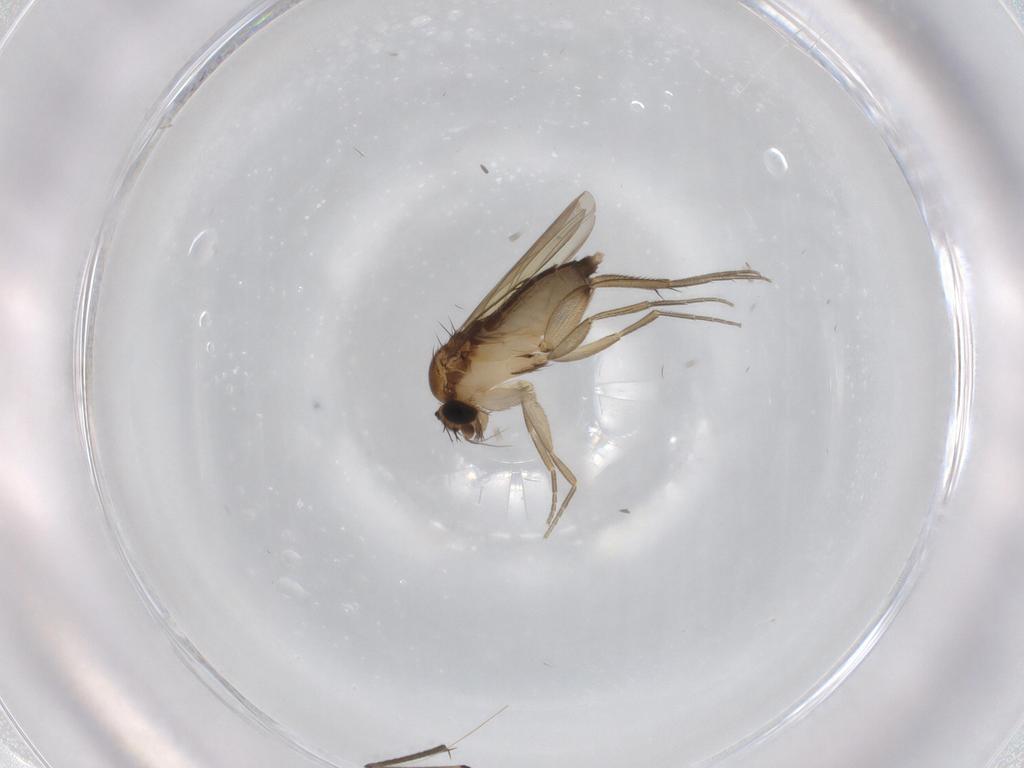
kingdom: Animalia
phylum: Arthropoda
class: Insecta
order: Diptera
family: Phoridae
